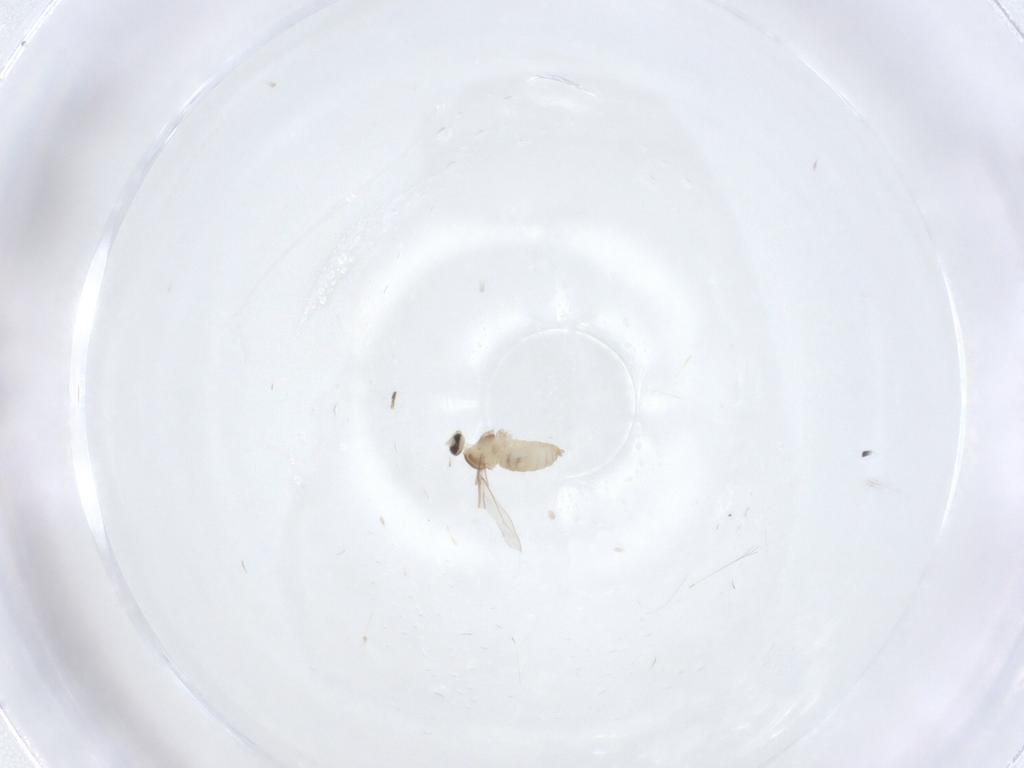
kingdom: Animalia
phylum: Arthropoda
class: Insecta
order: Diptera
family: Cecidomyiidae
